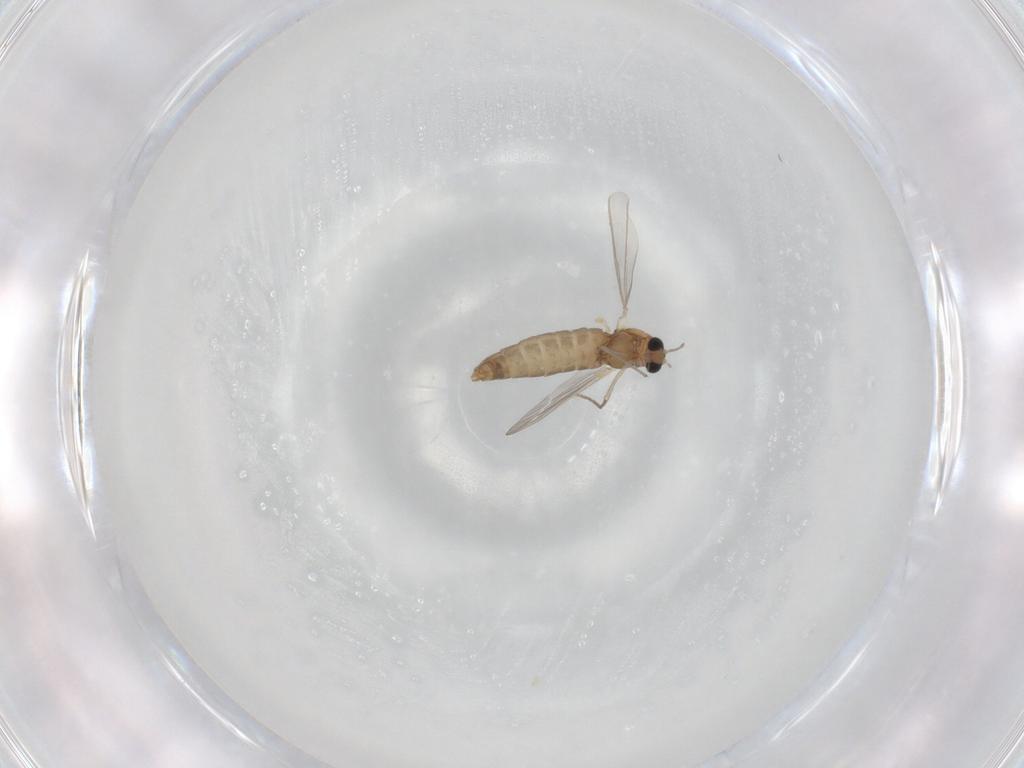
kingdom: Animalia
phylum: Arthropoda
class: Insecta
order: Diptera
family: Chironomidae
